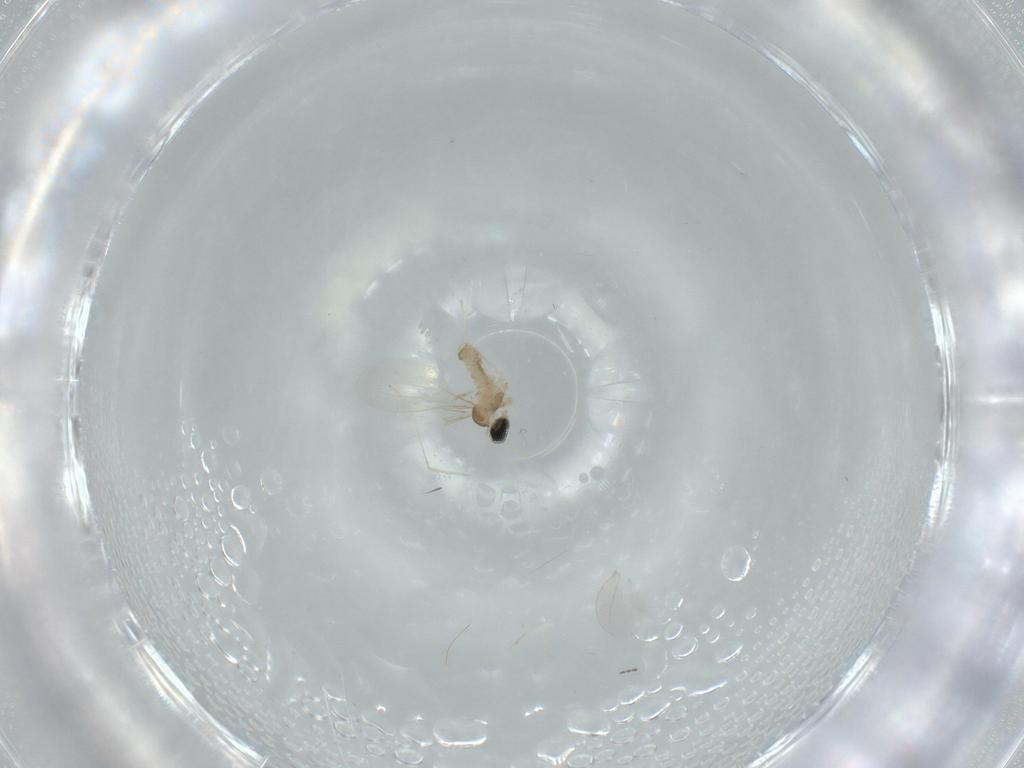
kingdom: Animalia
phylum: Arthropoda
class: Insecta
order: Diptera
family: Cecidomyiidae
